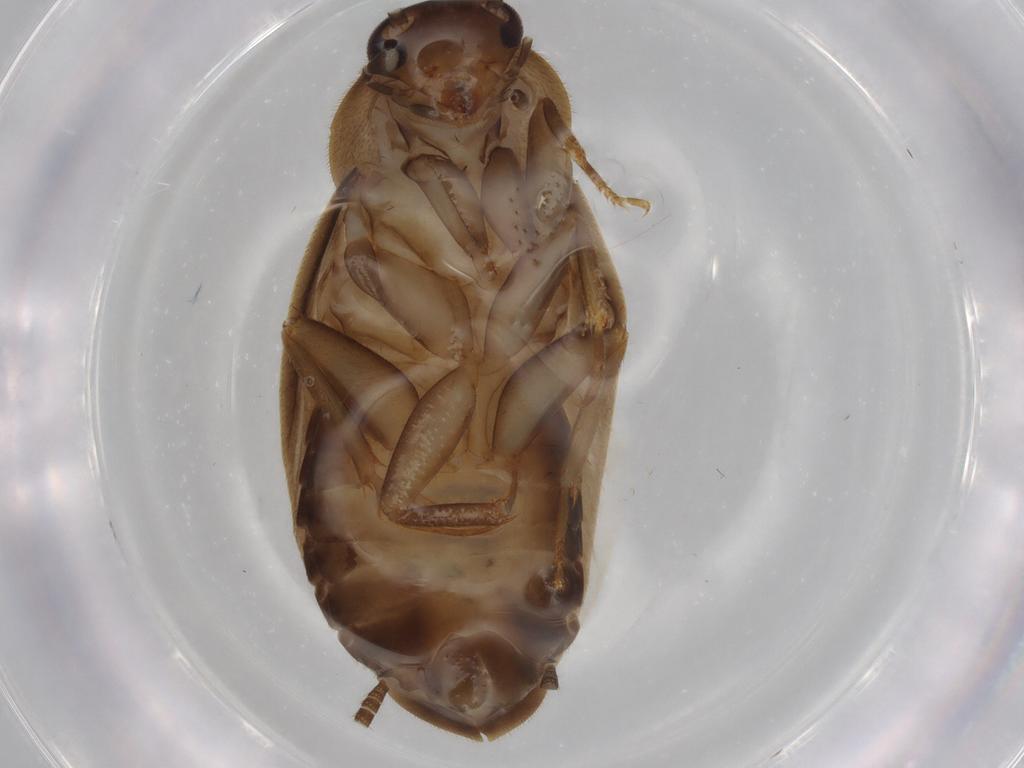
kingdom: Animalia
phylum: Arthropoda
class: Insecta
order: Blattodea
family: Ectobiidae
